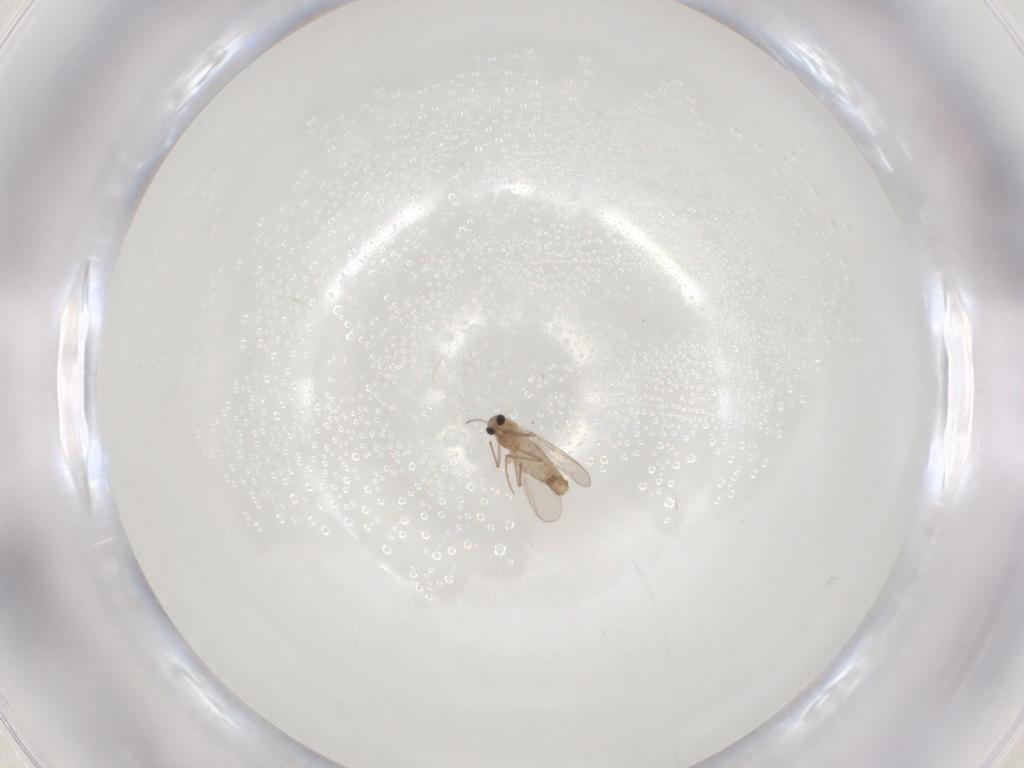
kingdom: Animalia
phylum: Arthropoda
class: Insecta
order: Diptera
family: Chironomidae
